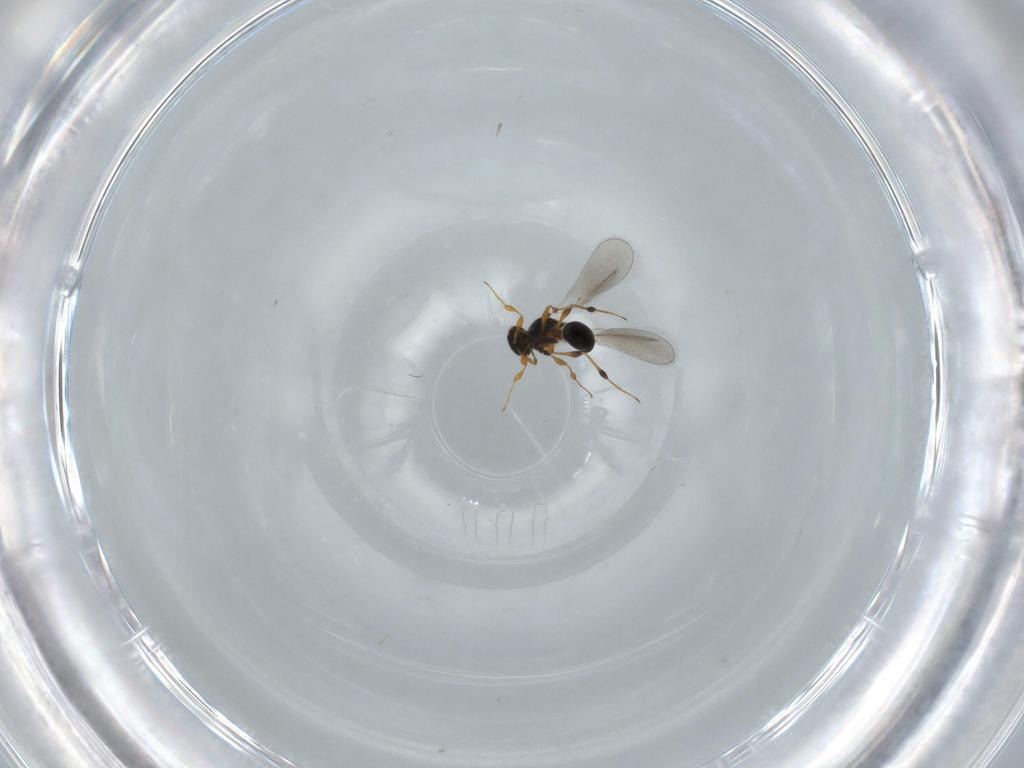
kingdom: Animalia
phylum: Arthropoda
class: Insecta
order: Hymenoptera
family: Platygastridae
